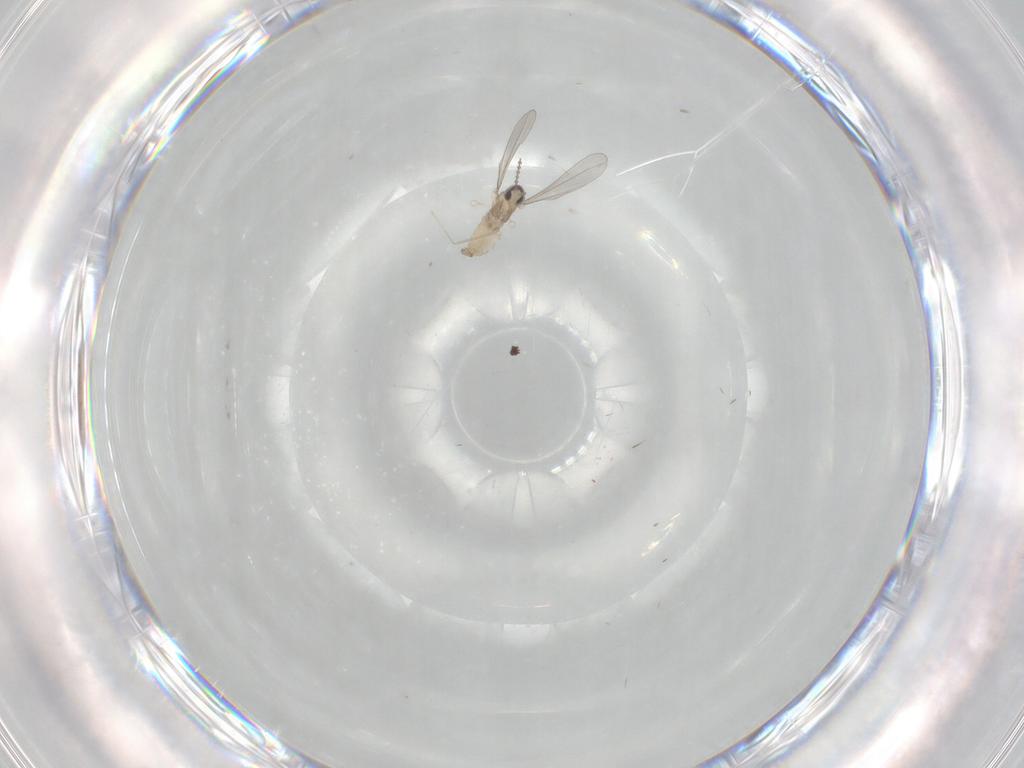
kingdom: Animalia
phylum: Arthropoda
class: Insecta
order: Diptera
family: Cecidomyiidae
